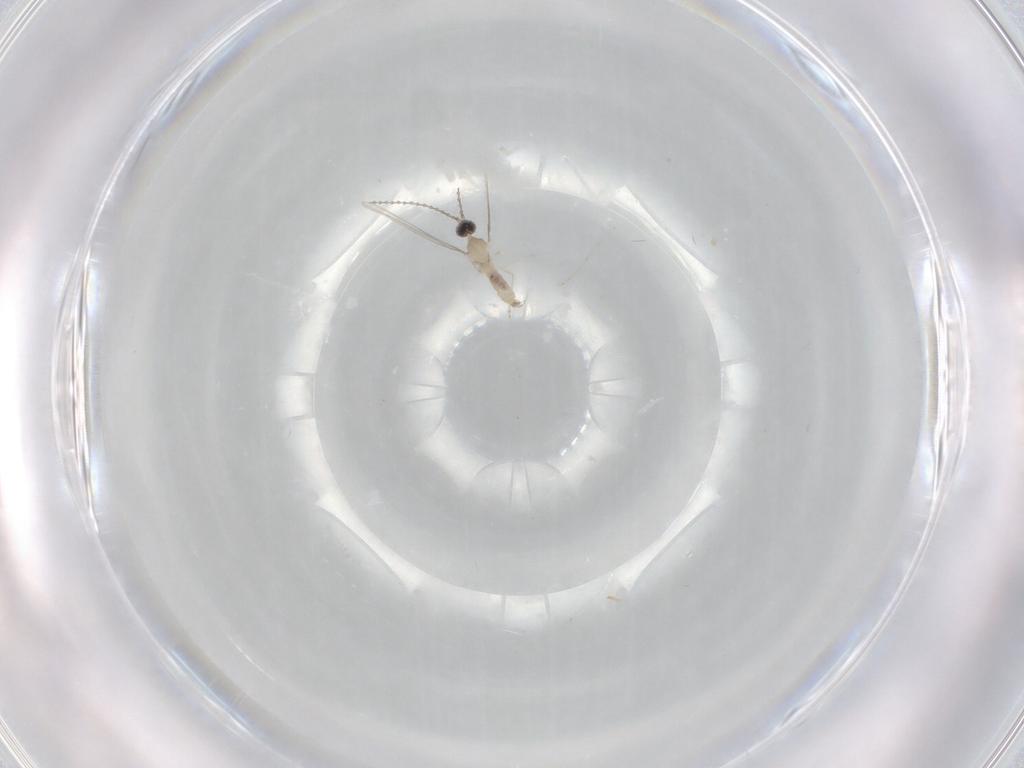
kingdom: Animalia
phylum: Arthropoda
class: Insecta
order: Diptera
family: Cecidomyiidae
